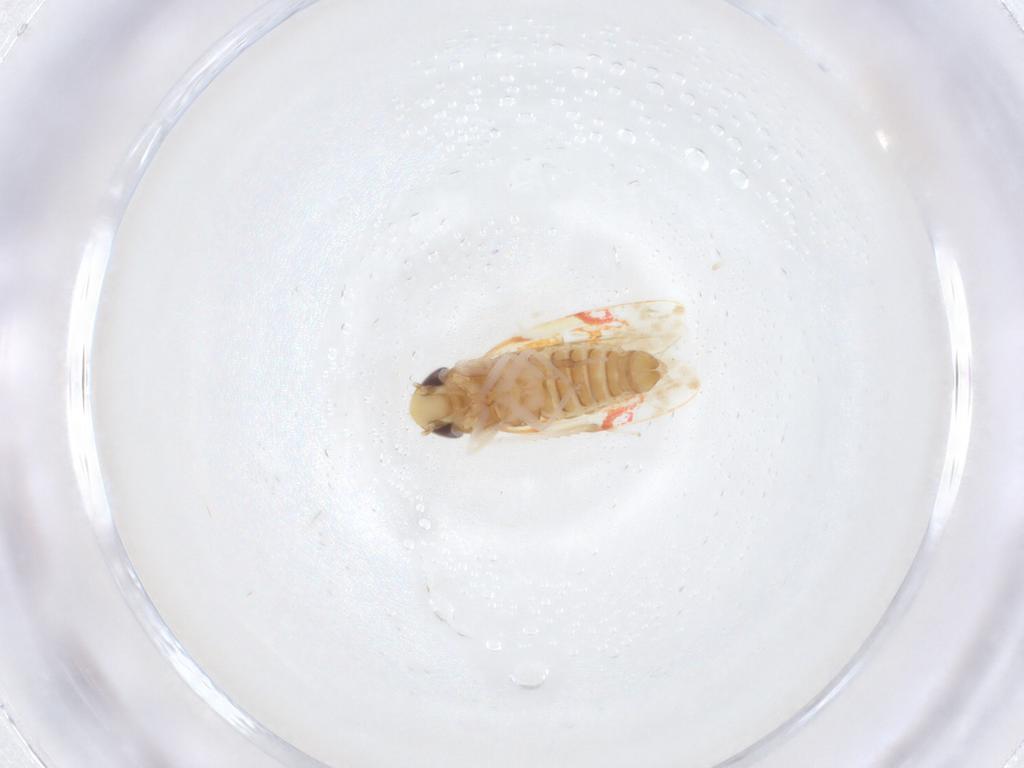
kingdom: Animalia
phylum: Arthropoda
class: Insecta
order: Hemiptera
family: Cicadellidae
